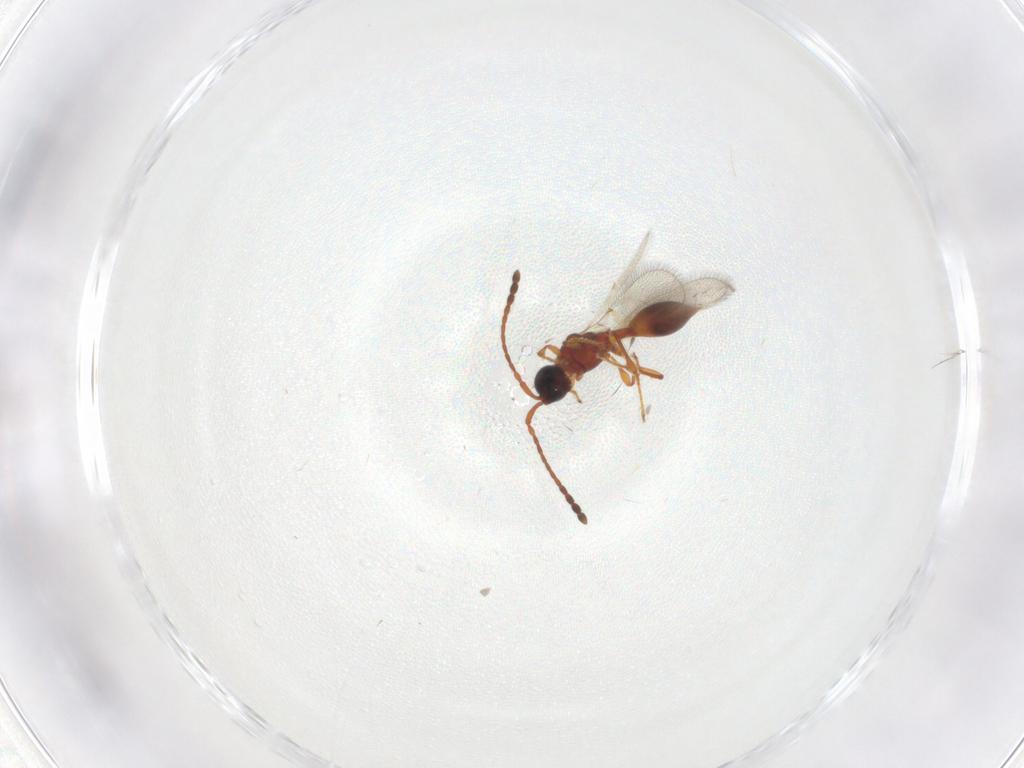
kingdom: Animalia
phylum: Arthropoda
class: Insecta
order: Hymenoptera
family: Diapriidae
